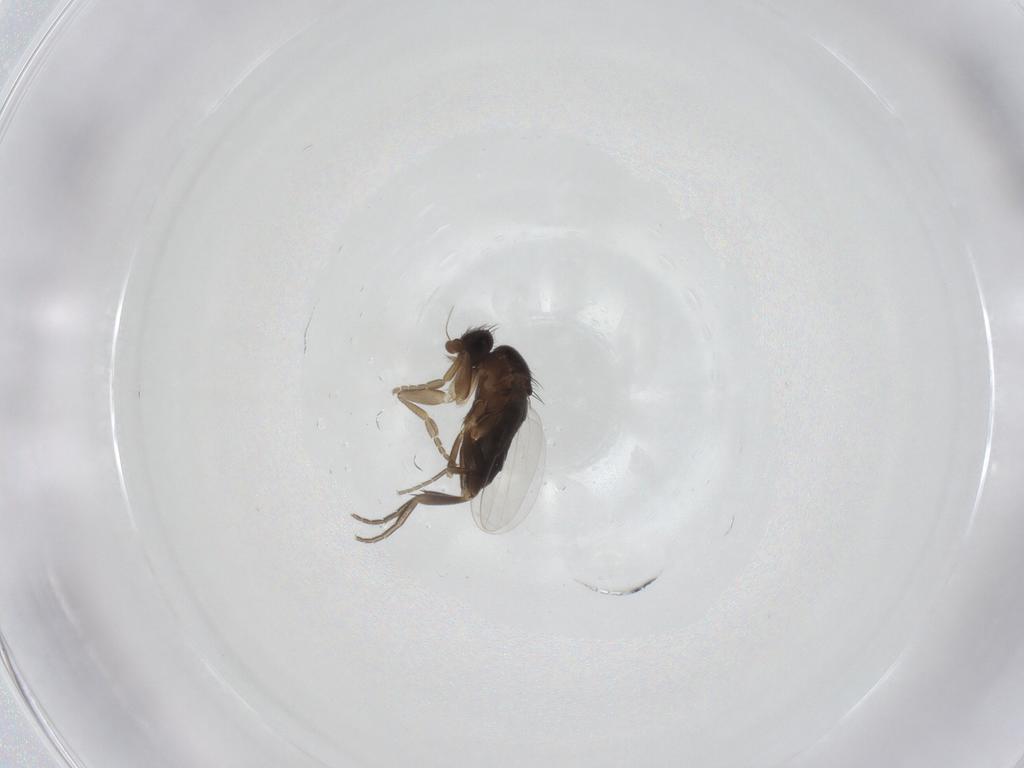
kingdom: Animalia
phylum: Arthropoda
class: Insecta
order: Diptera
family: Phoridae
